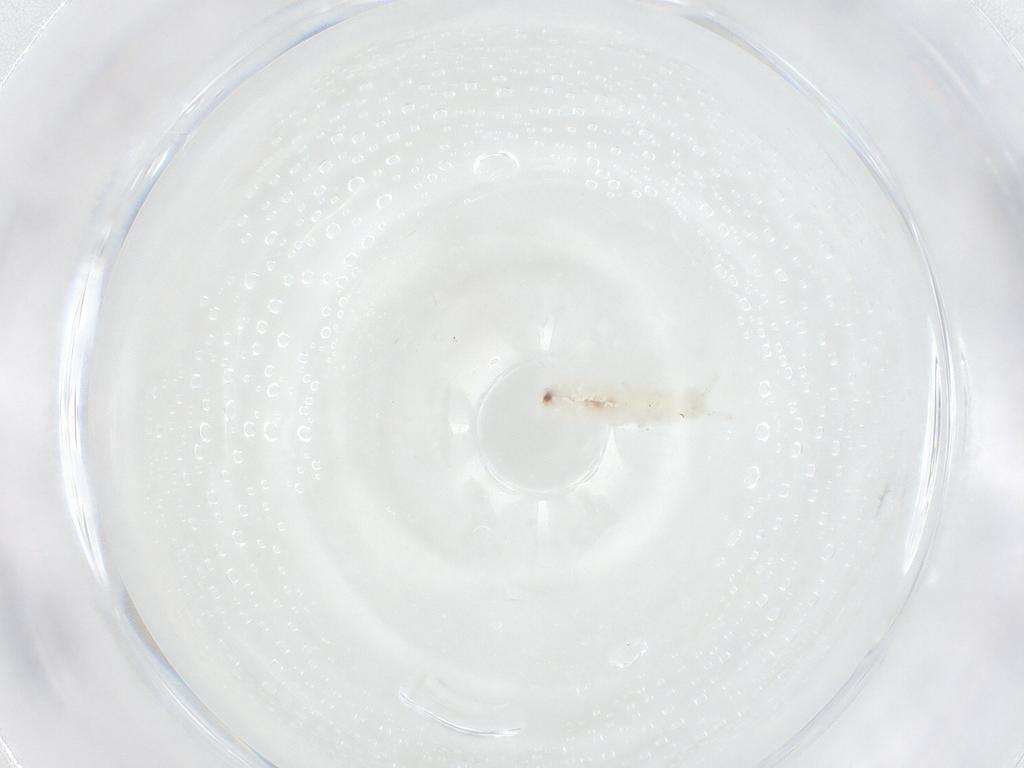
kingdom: Animalia
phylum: Arthropoda
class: Collembola
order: Poduromorpha
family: Onychiuridae
